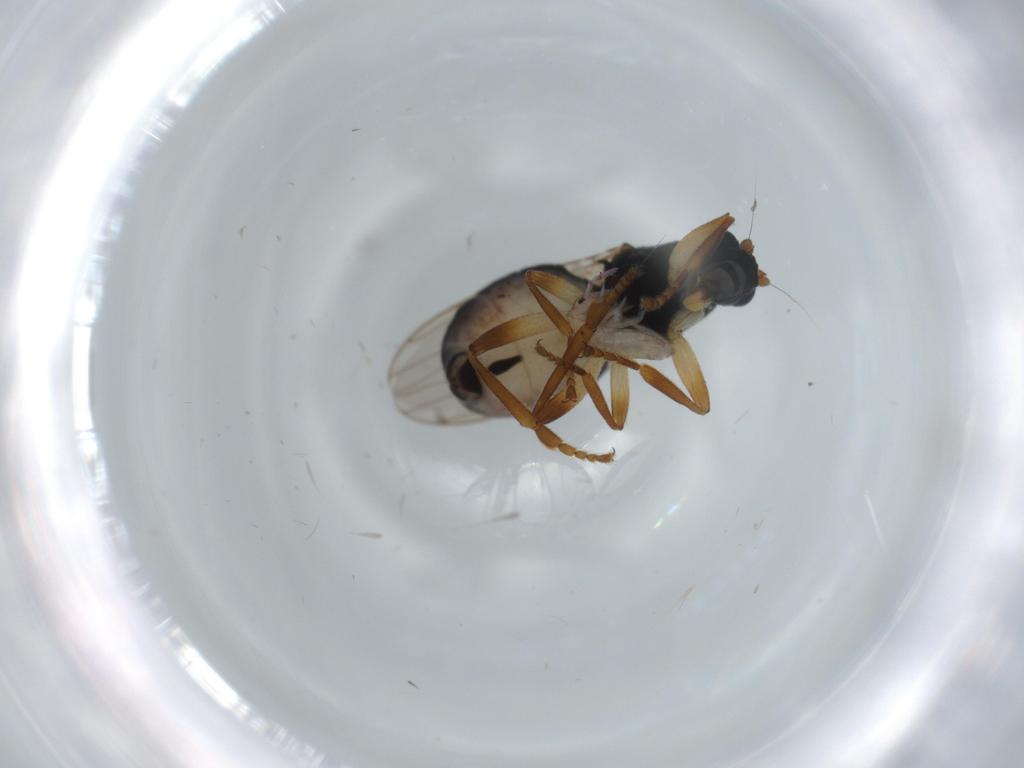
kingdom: Animalia
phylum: Arthropoda
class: Insecta
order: Diptera
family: Sphaeroceridae
